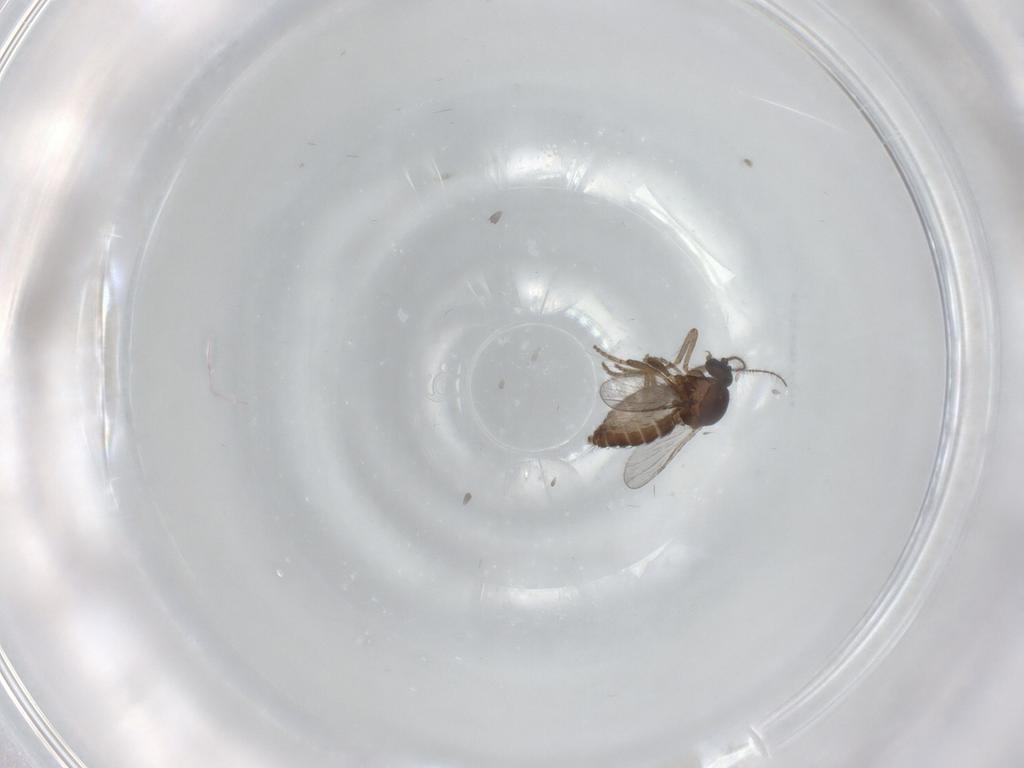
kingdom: Animalia
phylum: Arthropoda
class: Insecta
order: Diptera
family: Ceratopogonidae
